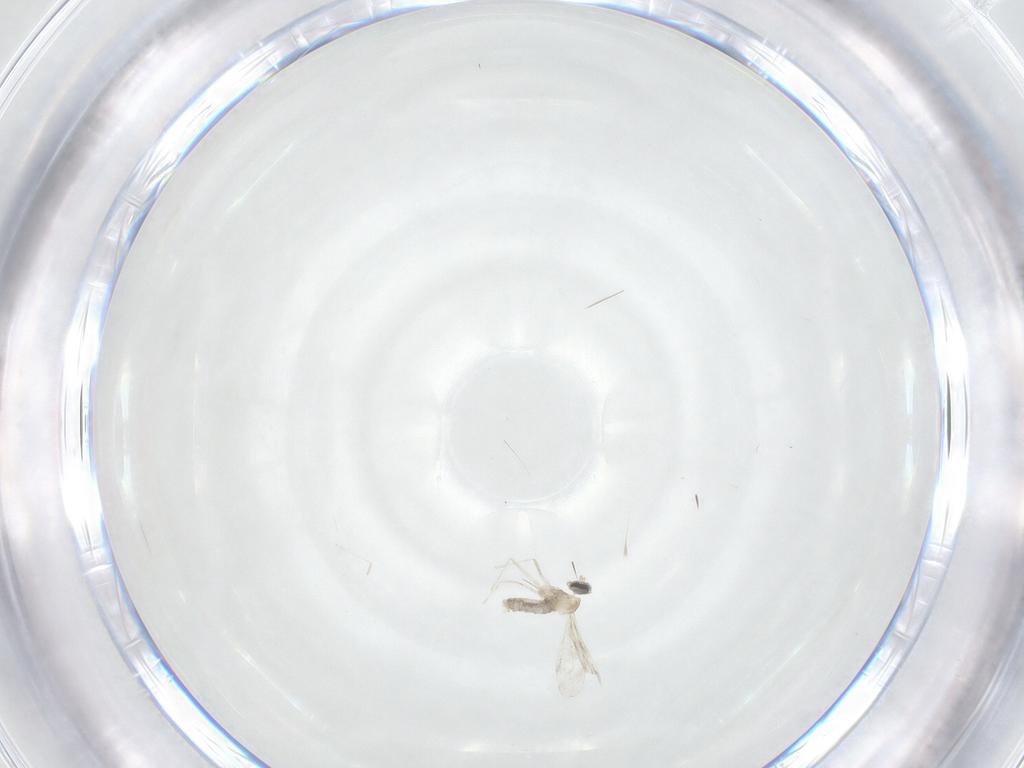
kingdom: Animalia
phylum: Arthropoda
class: Insecta
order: Diptera
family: Cecidomyiidae
